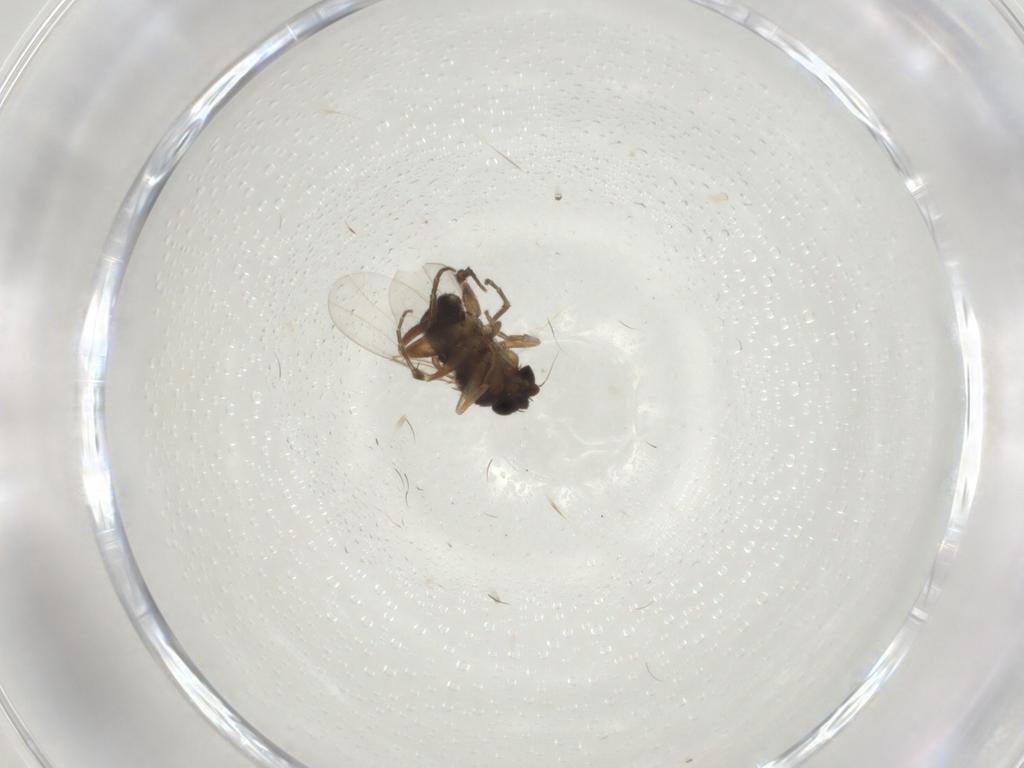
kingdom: Animalia
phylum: Arthropoda
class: Insecta
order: Diptera
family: Phoridae
